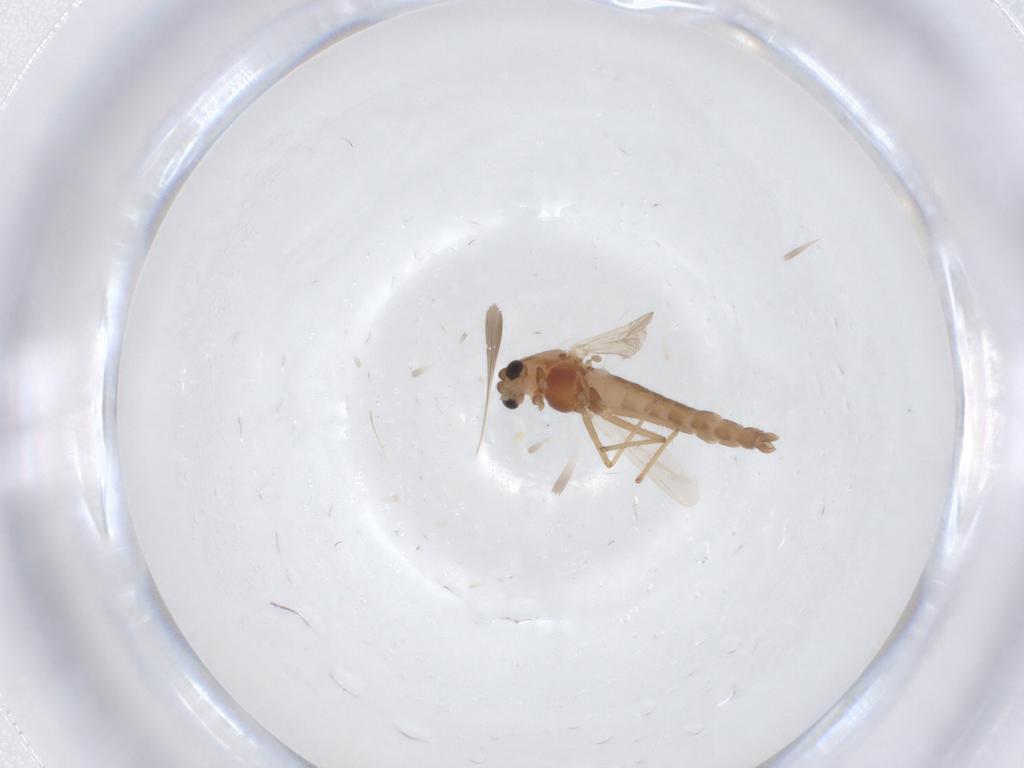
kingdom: Animalia
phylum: Arthropoda
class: Insecta
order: Diptera
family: Chironomidae
